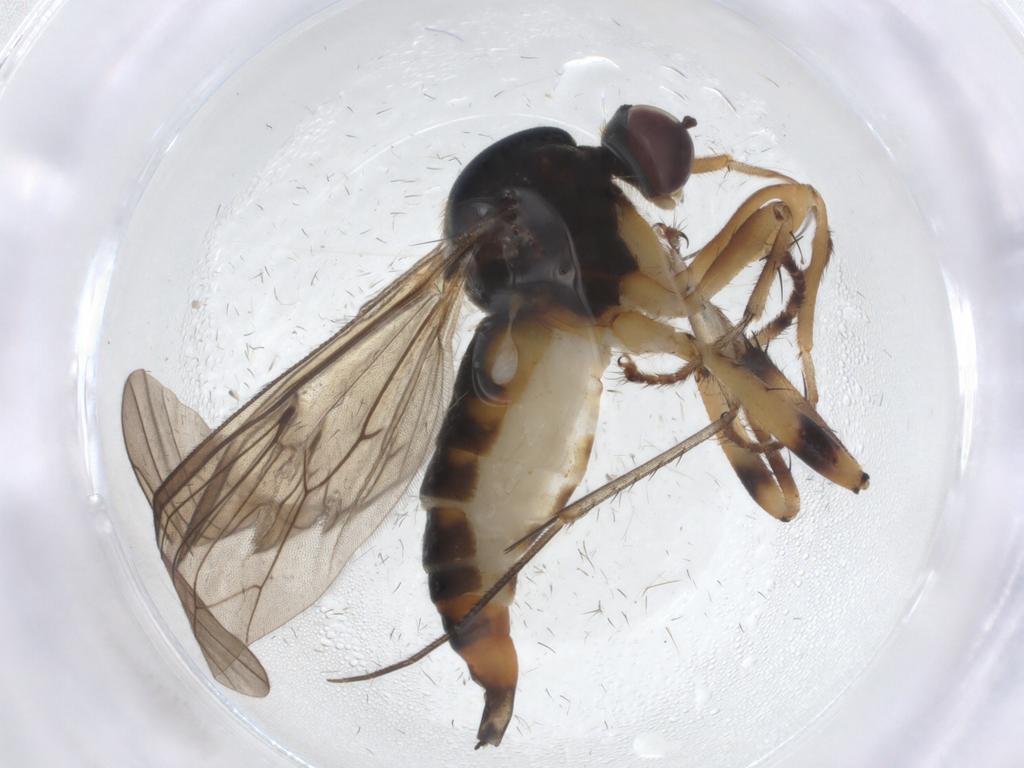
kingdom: Animalia
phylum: Arthropoda
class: Insecta
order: Diptera
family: Hybotidae
